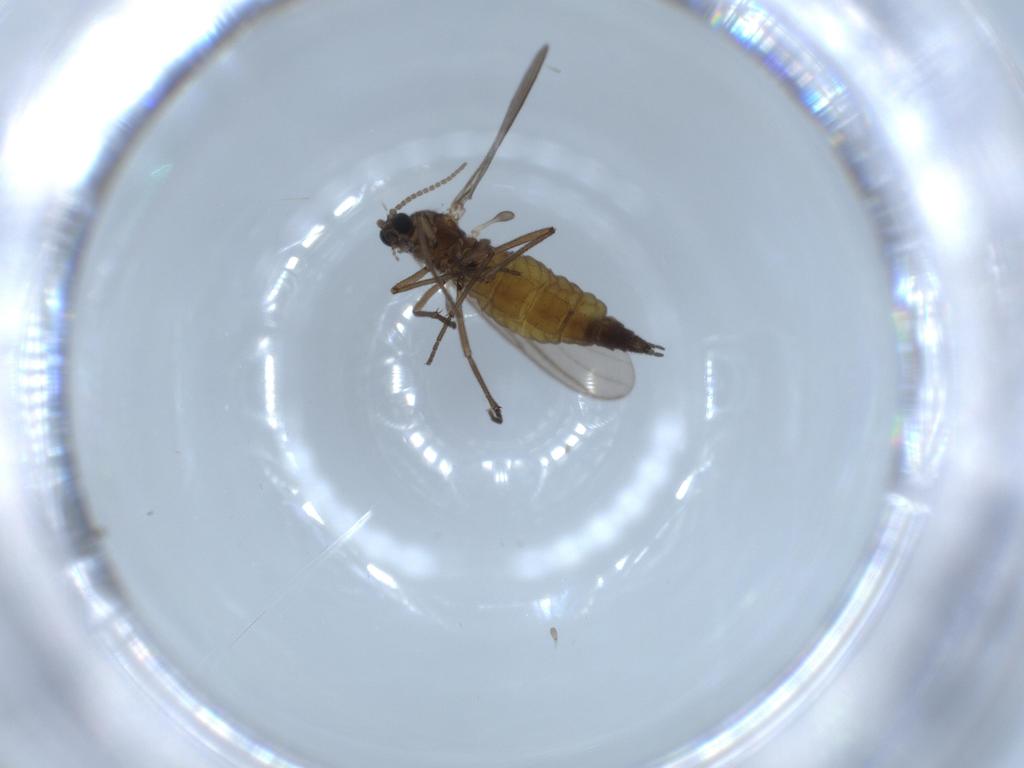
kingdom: Animalia
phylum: Arthropoda
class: Insecta
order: Diptera
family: Sciaridae
